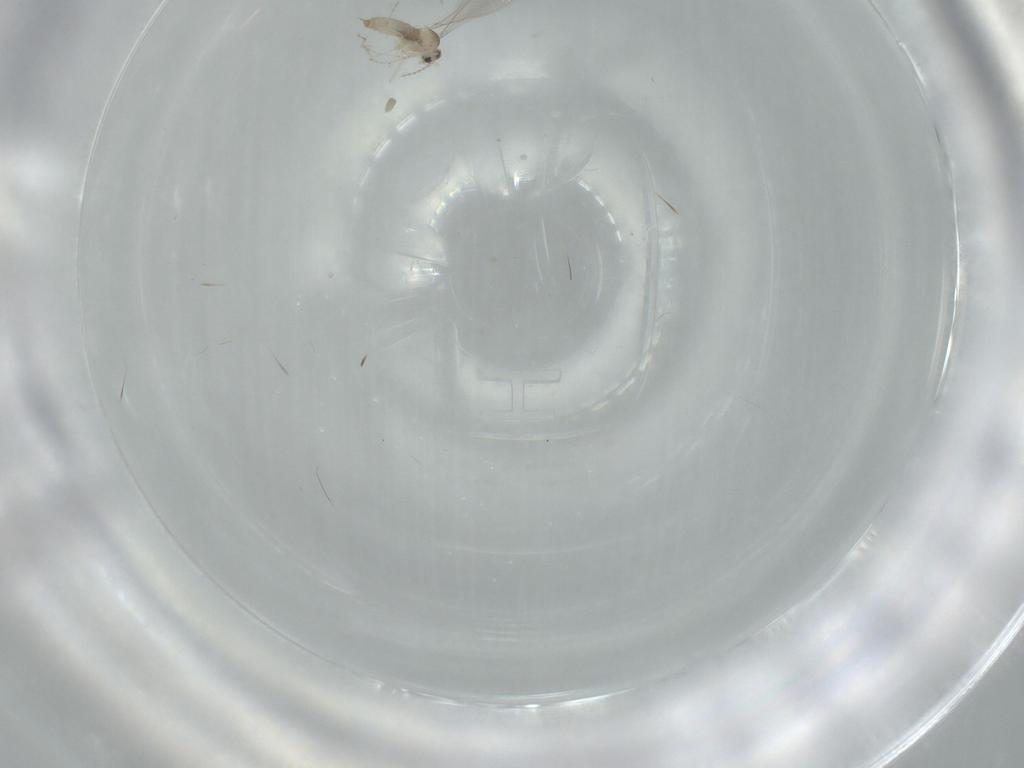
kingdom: Animalia
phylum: Arthropoda
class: Insecta
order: Diptera
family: Cecidomyiidae
